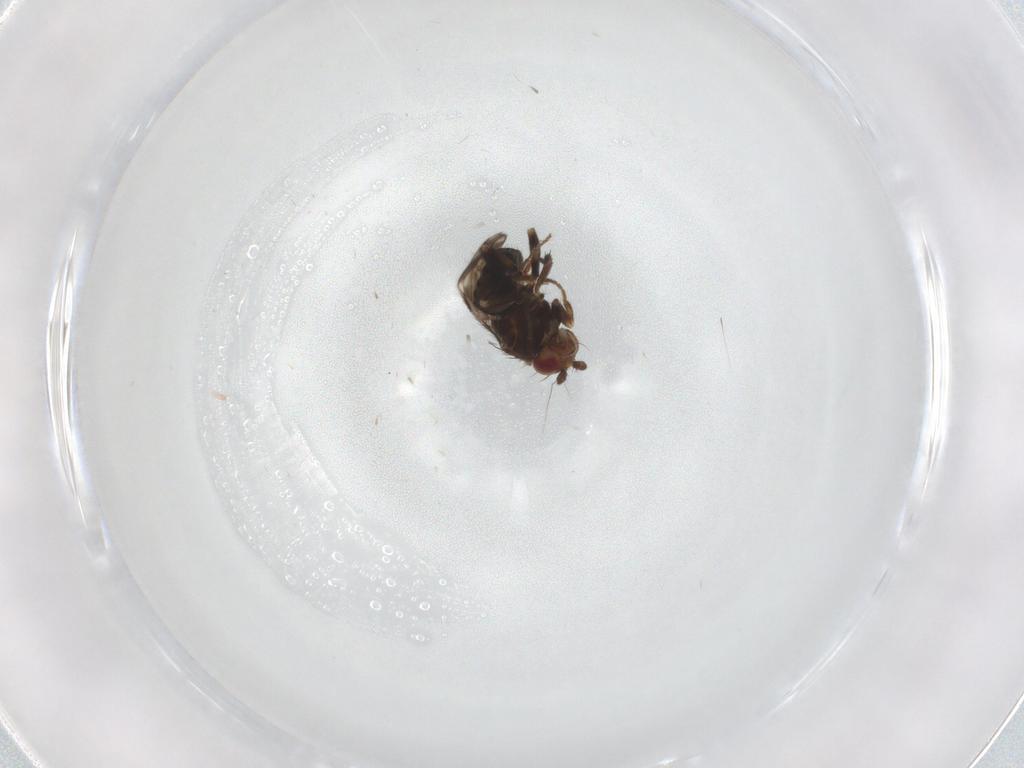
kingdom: Animalia
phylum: Arthropoda
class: Insecta
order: Diptera
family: Sphaeroceridae
